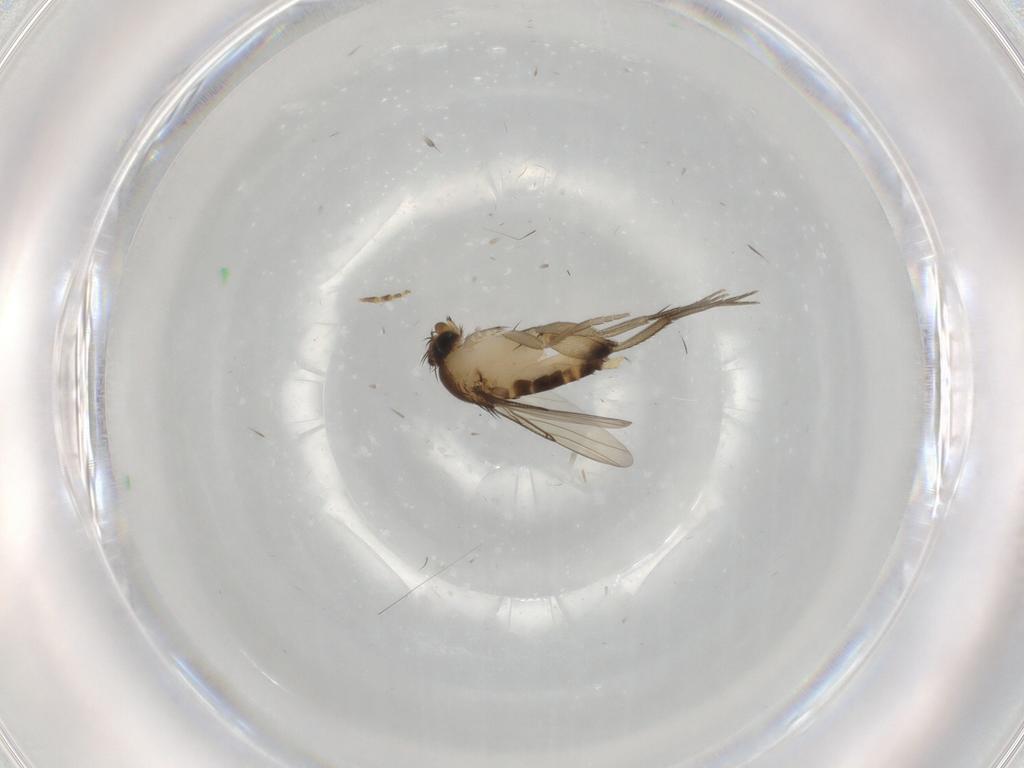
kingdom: Animalia
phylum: Arthropoda
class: Insecta
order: Diptera
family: Phoridae
